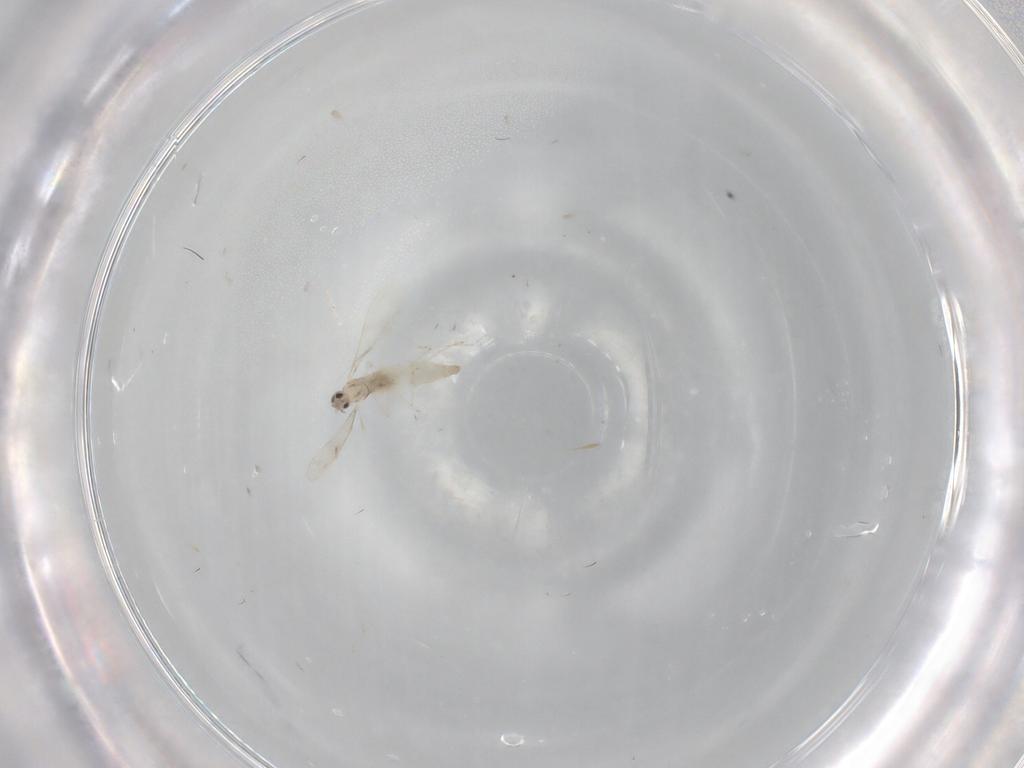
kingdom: Animalia
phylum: Arthropoda
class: Insecta
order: Diptera
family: Cecidomyiidae
